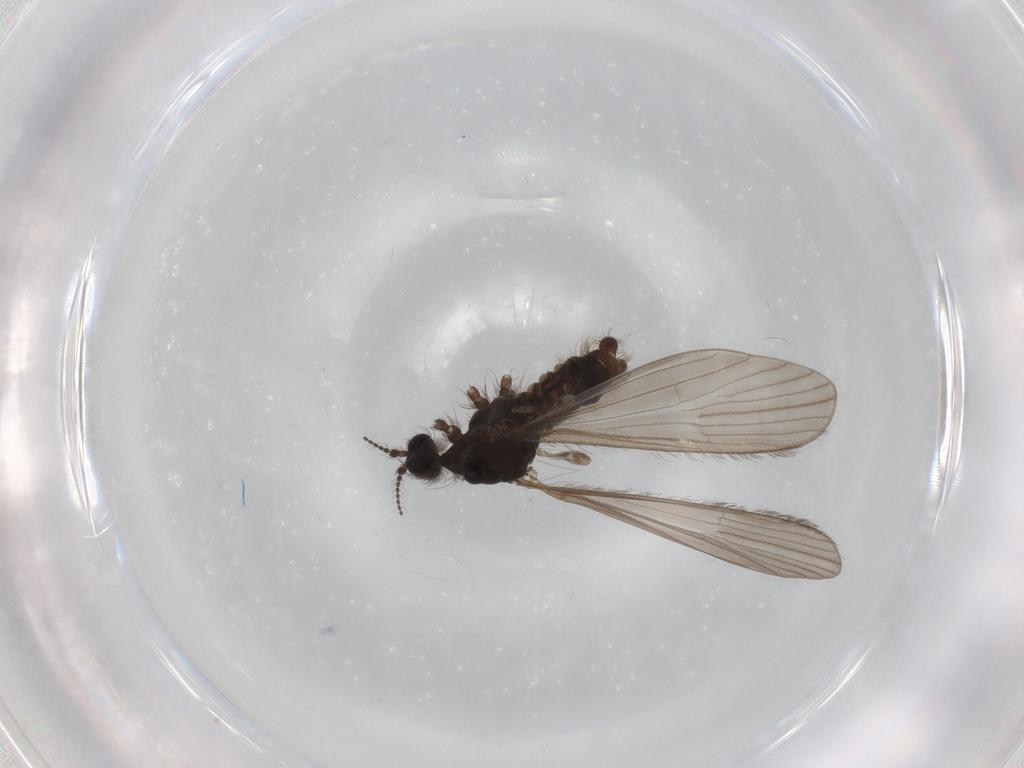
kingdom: Animalia
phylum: Arthropoda
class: Insecta
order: Diptera
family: Limoniidae
